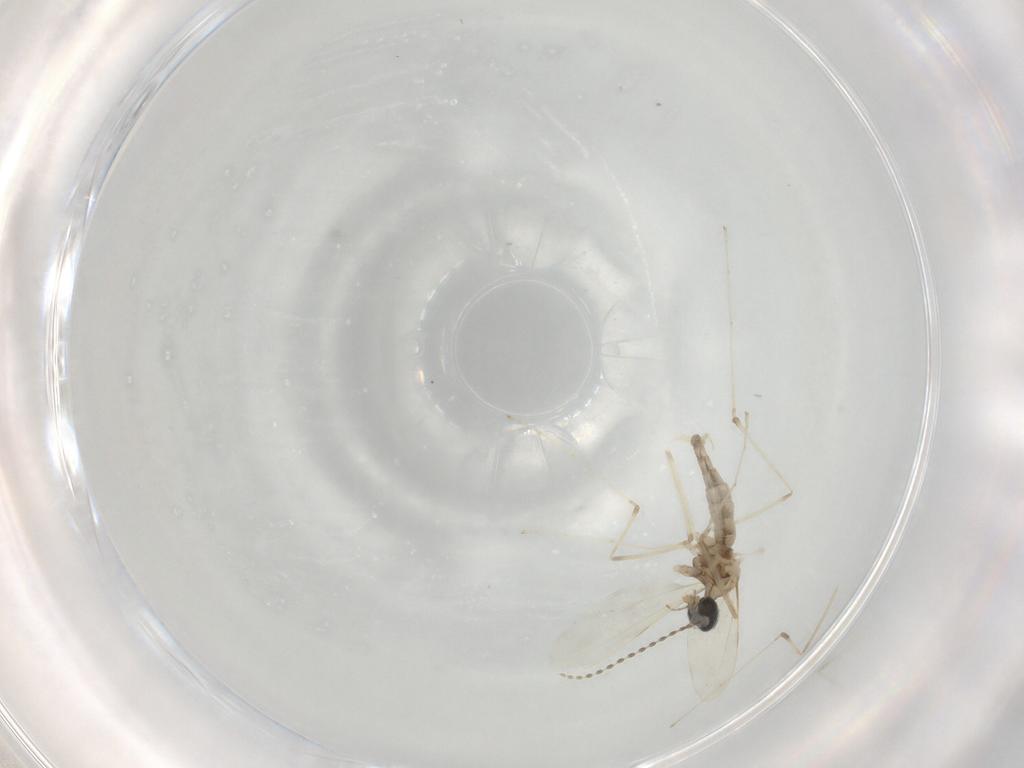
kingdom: Animalia
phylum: Arthropoda
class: Insecta
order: Diptera
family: Cecidomyiidae
